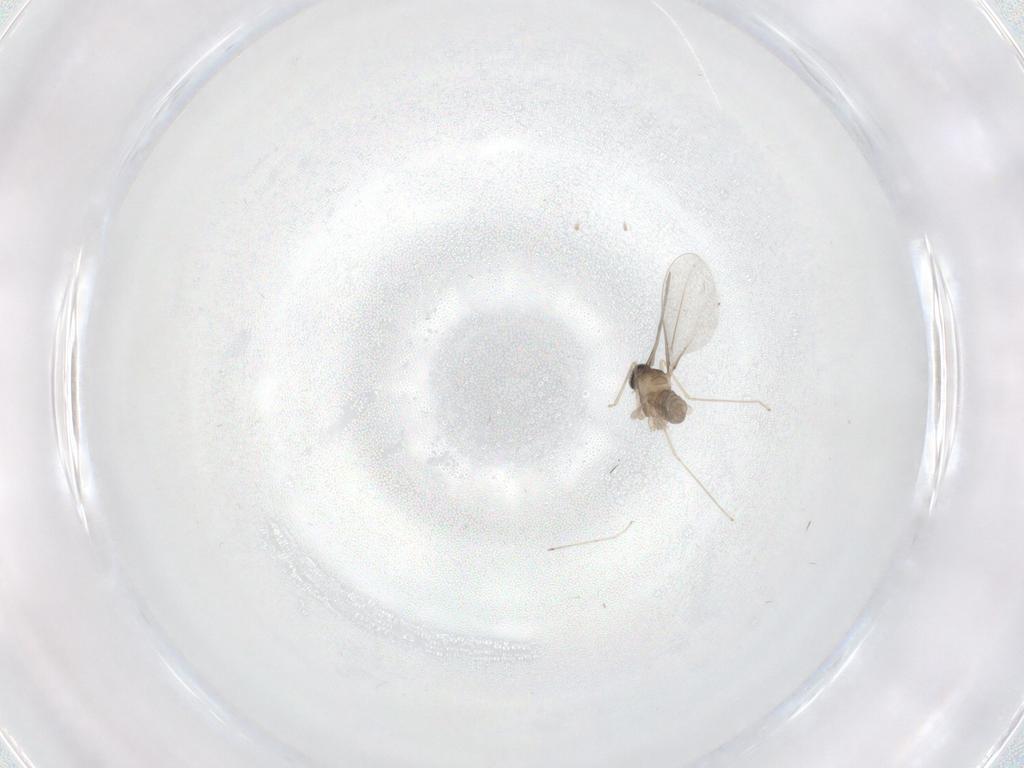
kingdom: Animalia
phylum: Arthropoda
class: Insecta
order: Diptera
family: Cecidomyiidae
